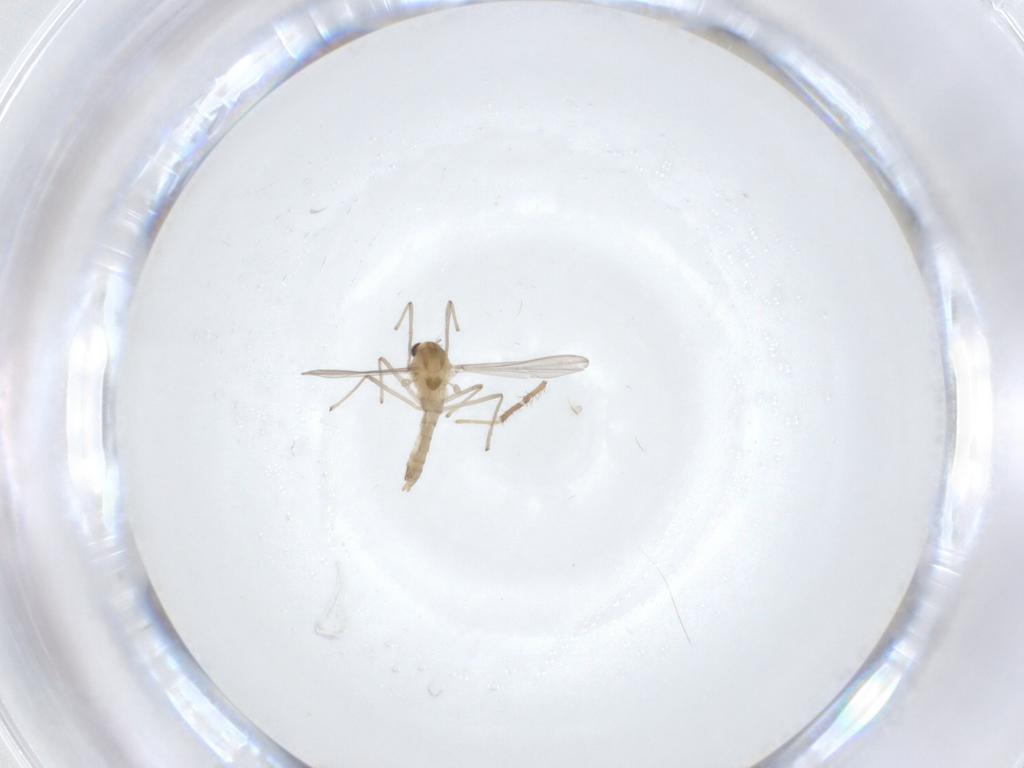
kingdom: Animalia
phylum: Arthropoda
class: Insecta
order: Diptera
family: Chironomidae
